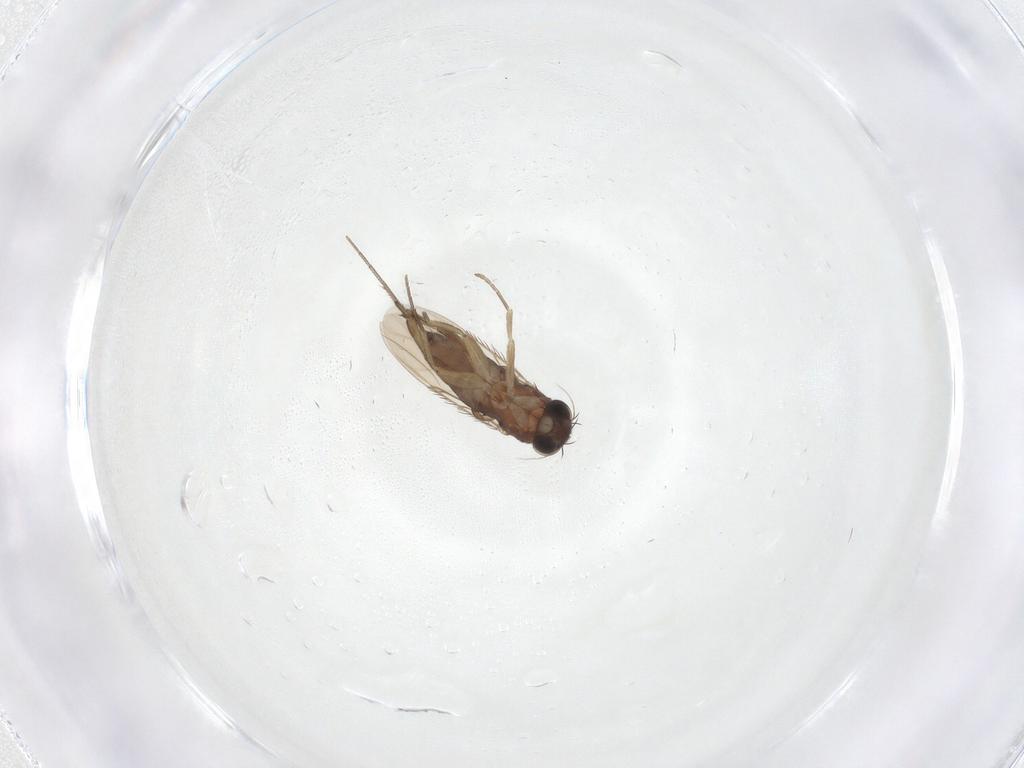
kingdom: Animalia
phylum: Arthropoda
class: Insecta
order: Diptera
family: Phoridae
